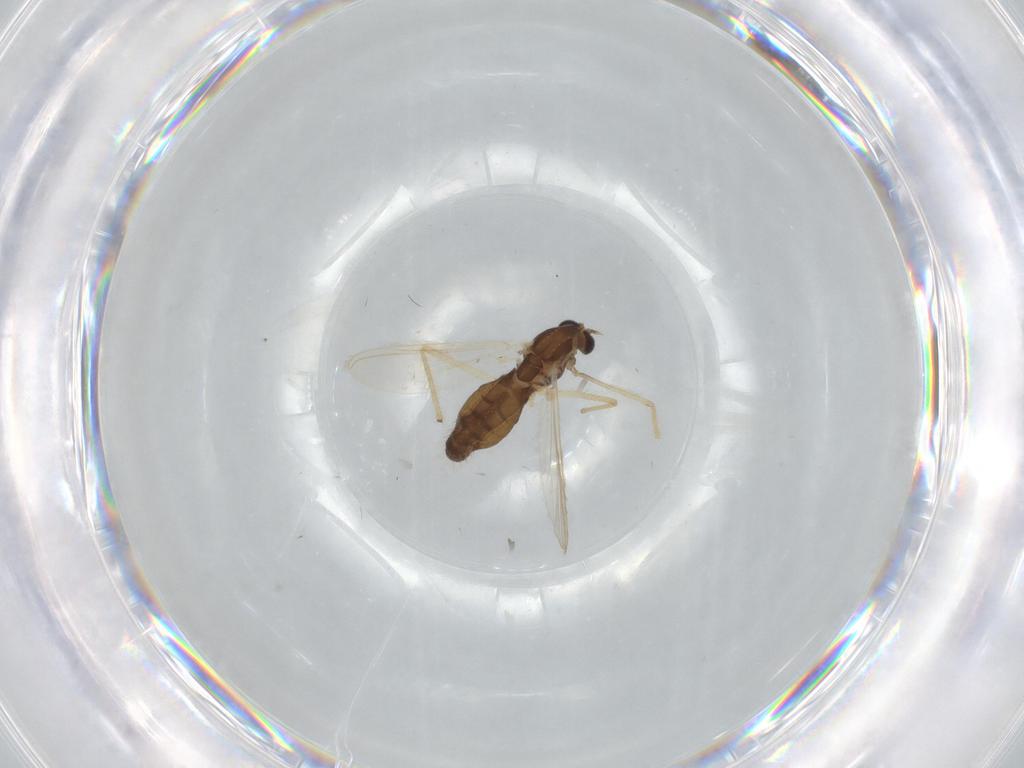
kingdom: Animalia
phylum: Arthropoda
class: Insecta
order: Diptera
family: Chironomidae
